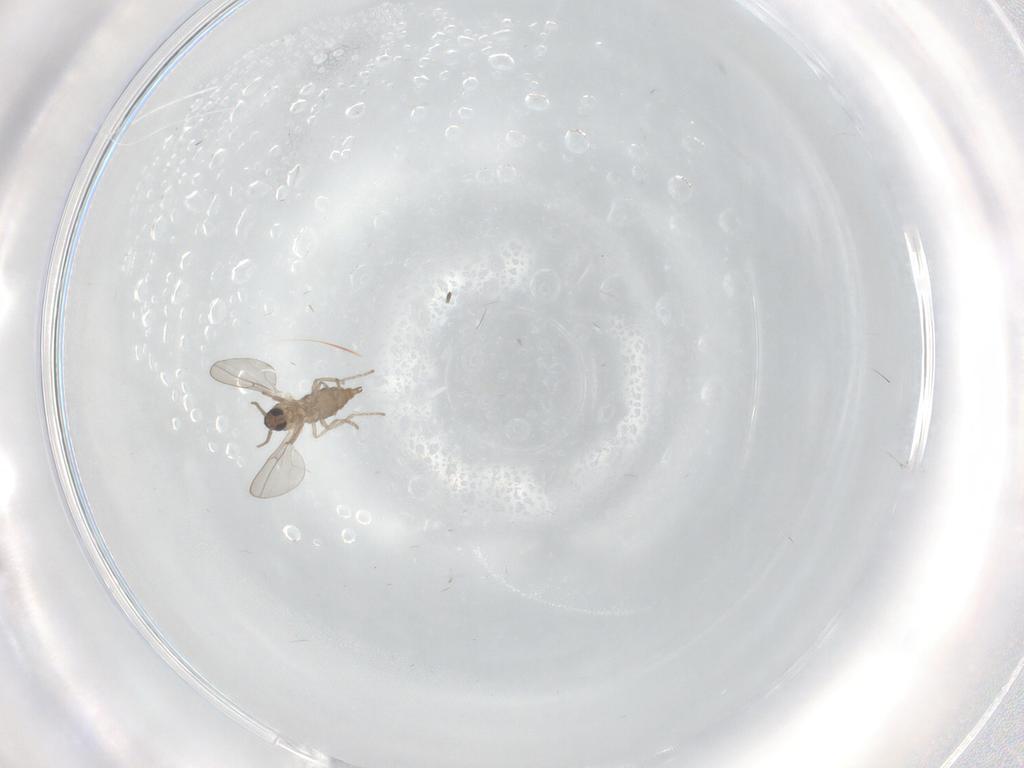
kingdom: Animalia
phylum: Arthropoda
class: Insecta
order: Diptera
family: Cecidomyiidae
